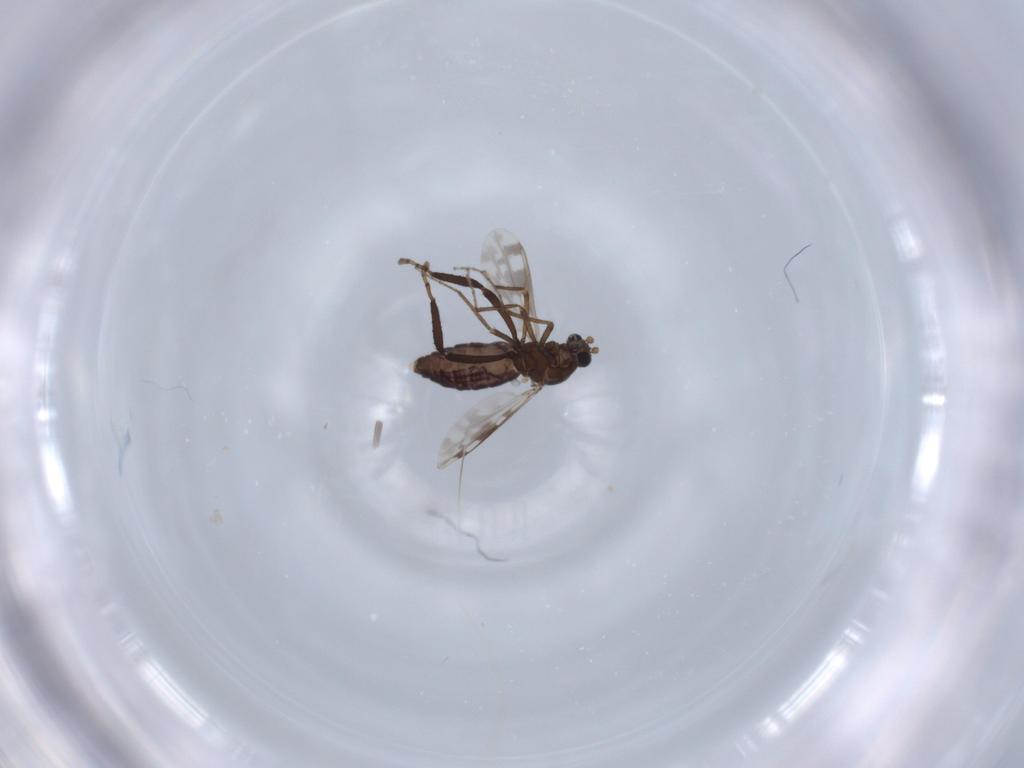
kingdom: Animalia
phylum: Arthropoda
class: Insecta
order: Diptera
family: Ceratopogonidae
